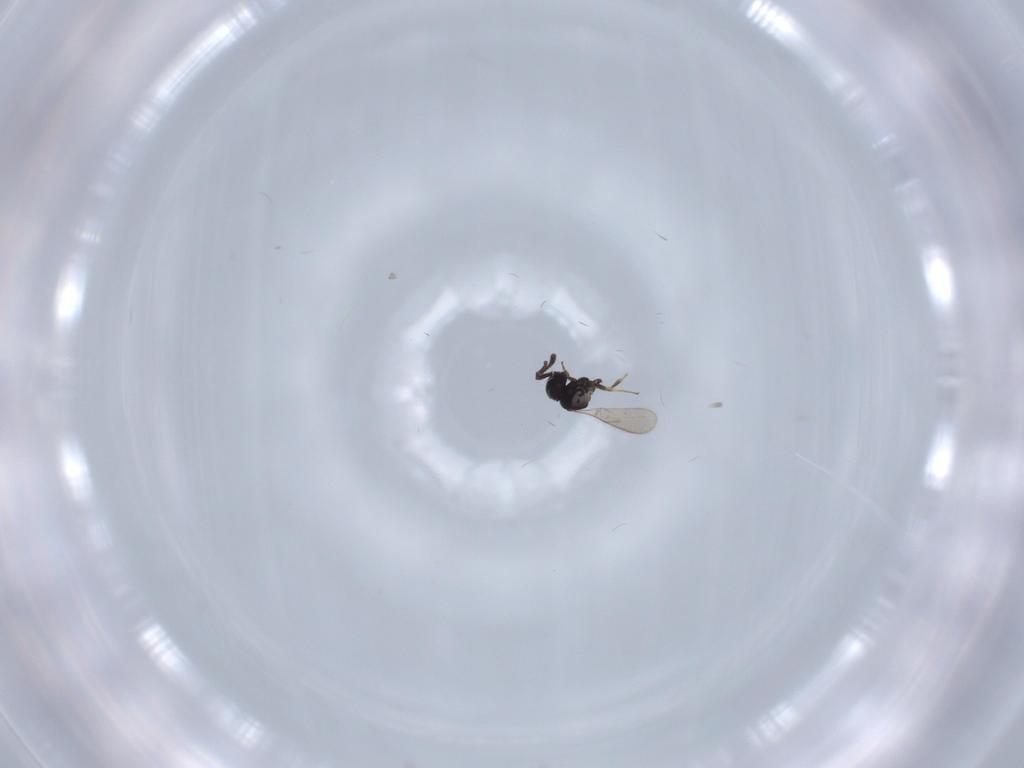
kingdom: Animalia
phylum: Arthropoda
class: Insecta
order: Hymenoptera
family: Scelionidae
